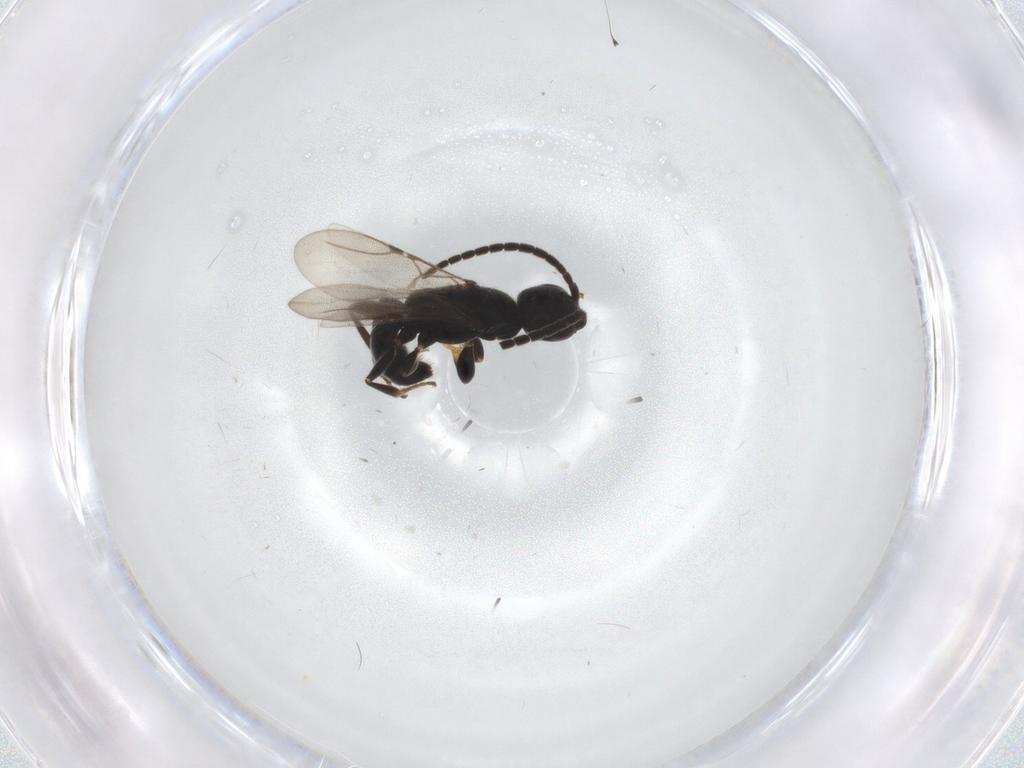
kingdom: Animalia
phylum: Arthropoda
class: Insecta
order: Hymenoptera
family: Bethylidae
